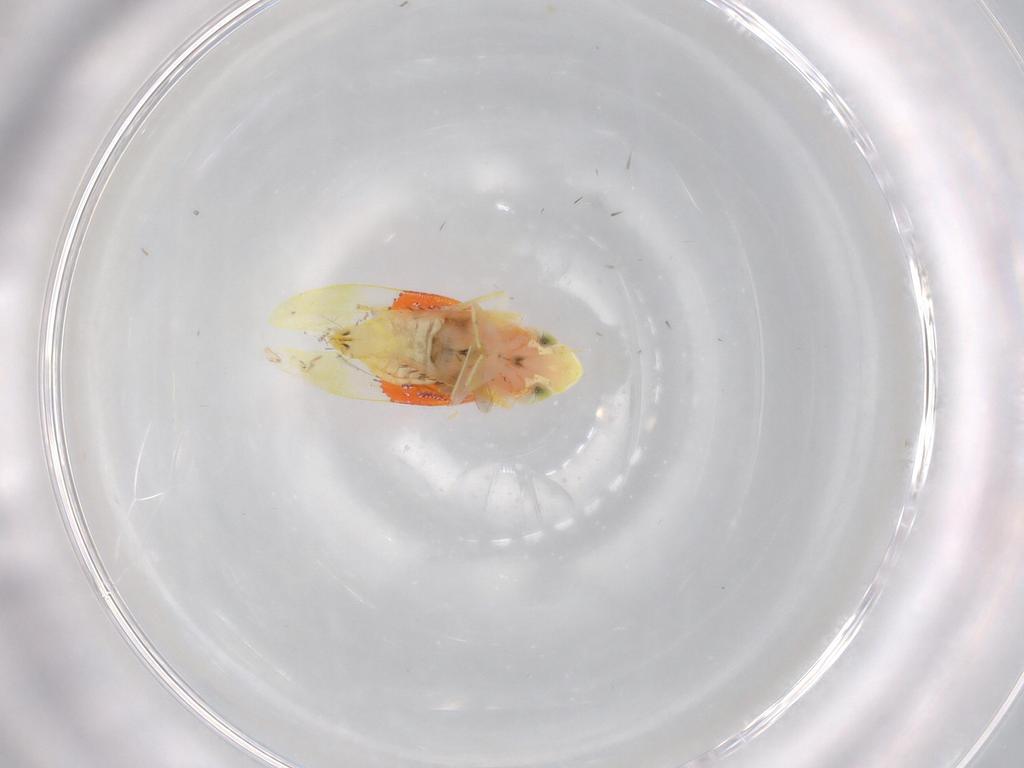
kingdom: Animalia
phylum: Arthropoda
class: Insecta
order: Hemiptera
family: Cicadellidae
